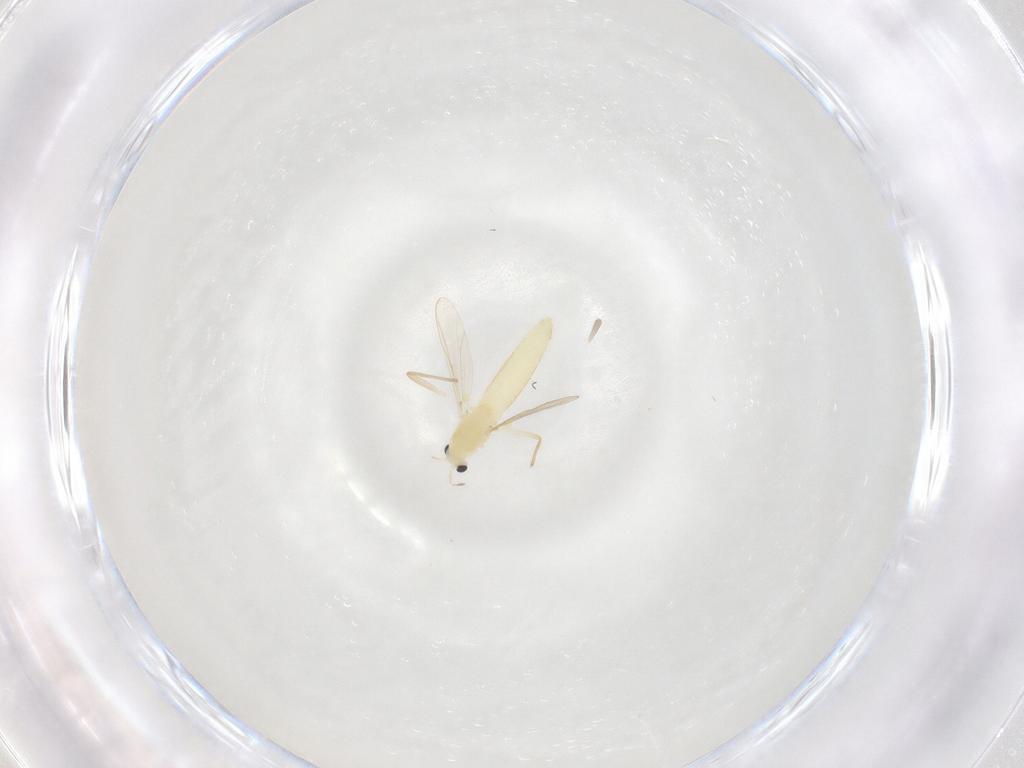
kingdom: Animalia
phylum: Arthropoda
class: Insecta
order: Diptera
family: Chironomidae
